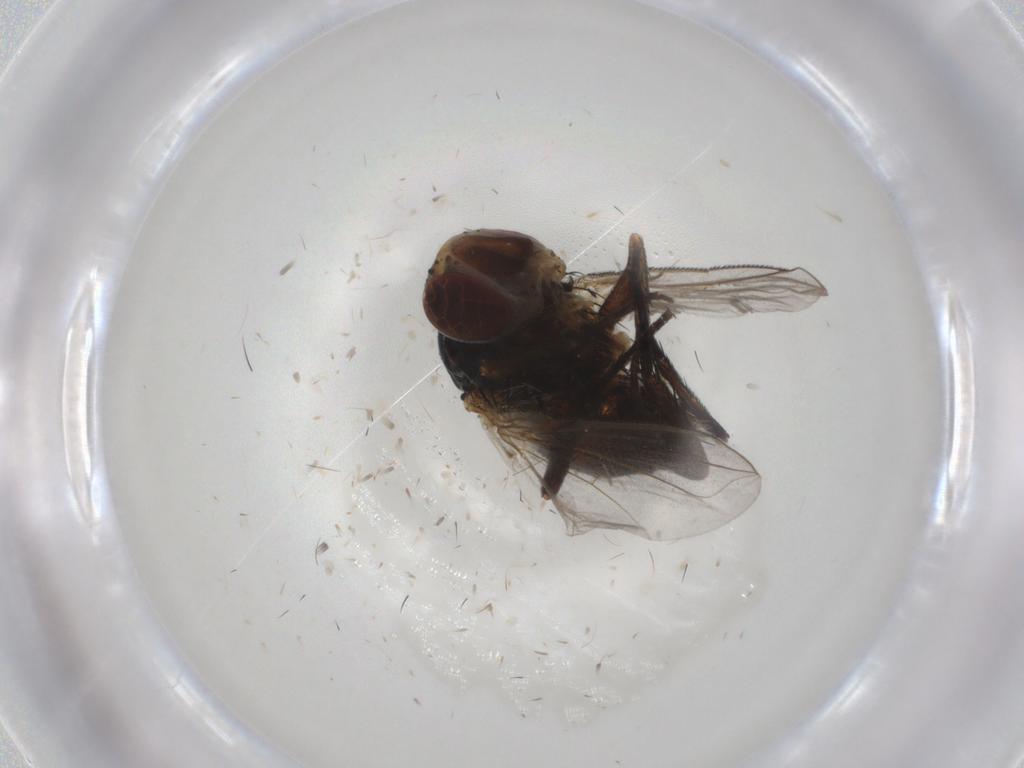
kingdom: Animalia
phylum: Arthropoda
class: Insecta
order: Diptera
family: Glossinidae
